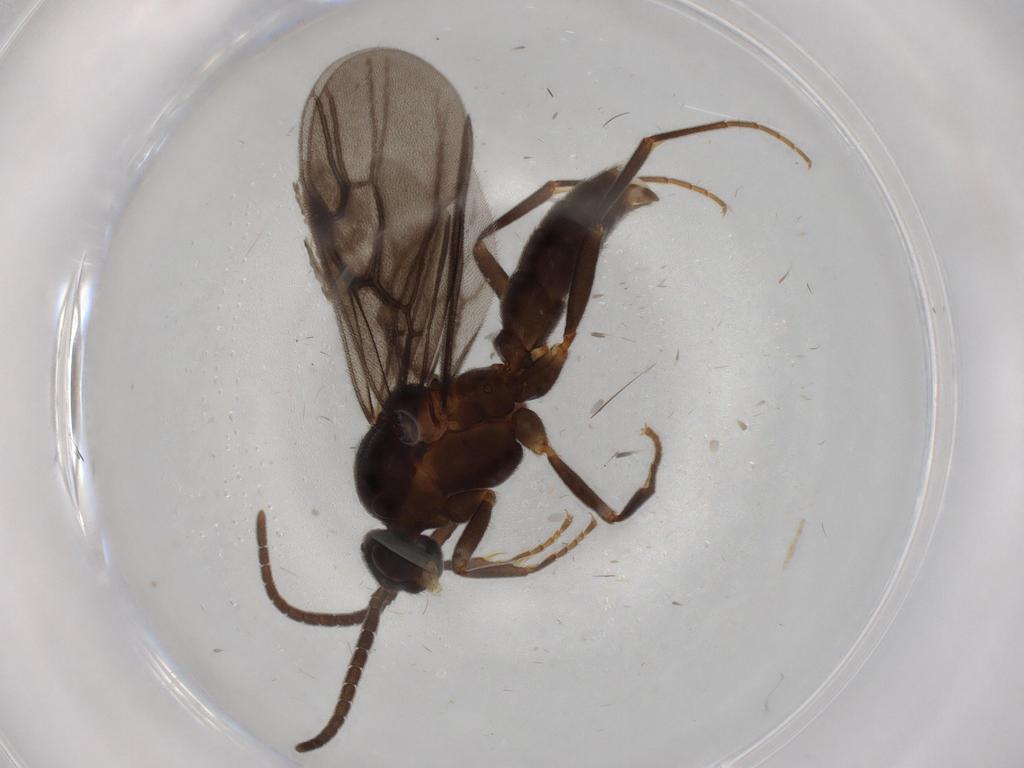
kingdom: Animalia
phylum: Arthropoda
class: Insecta
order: Hymenoptera
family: Formicidae
